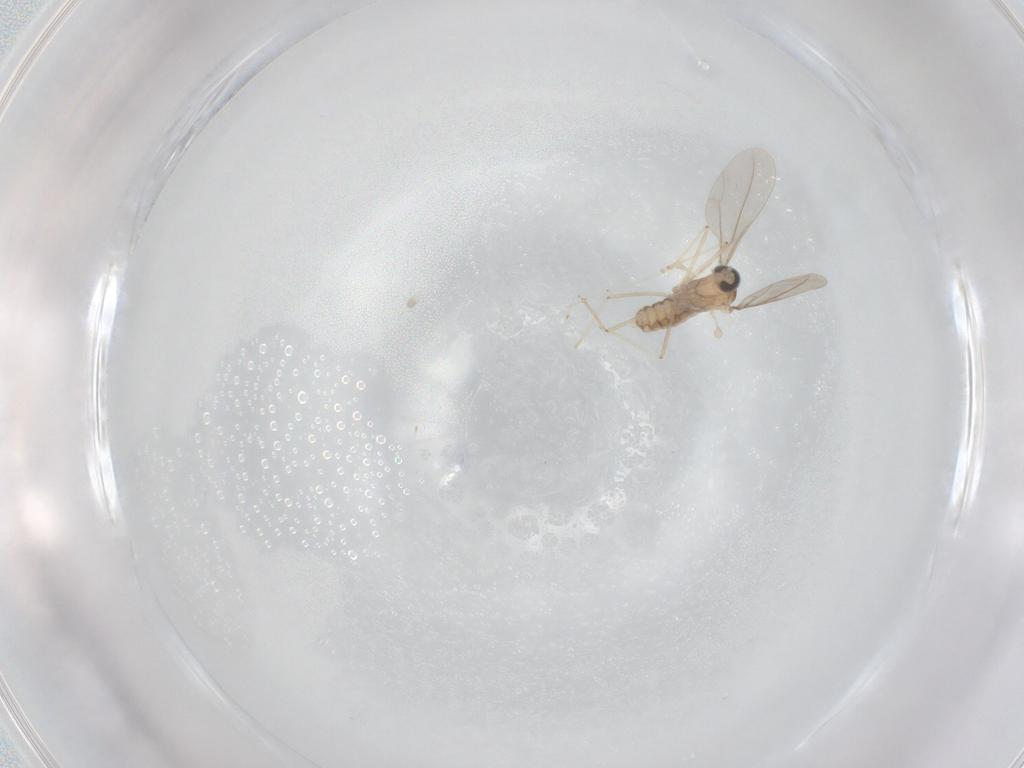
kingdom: Animalia
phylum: Arthropoda
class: Insecta
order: Diptera
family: Cecidomyiidae
